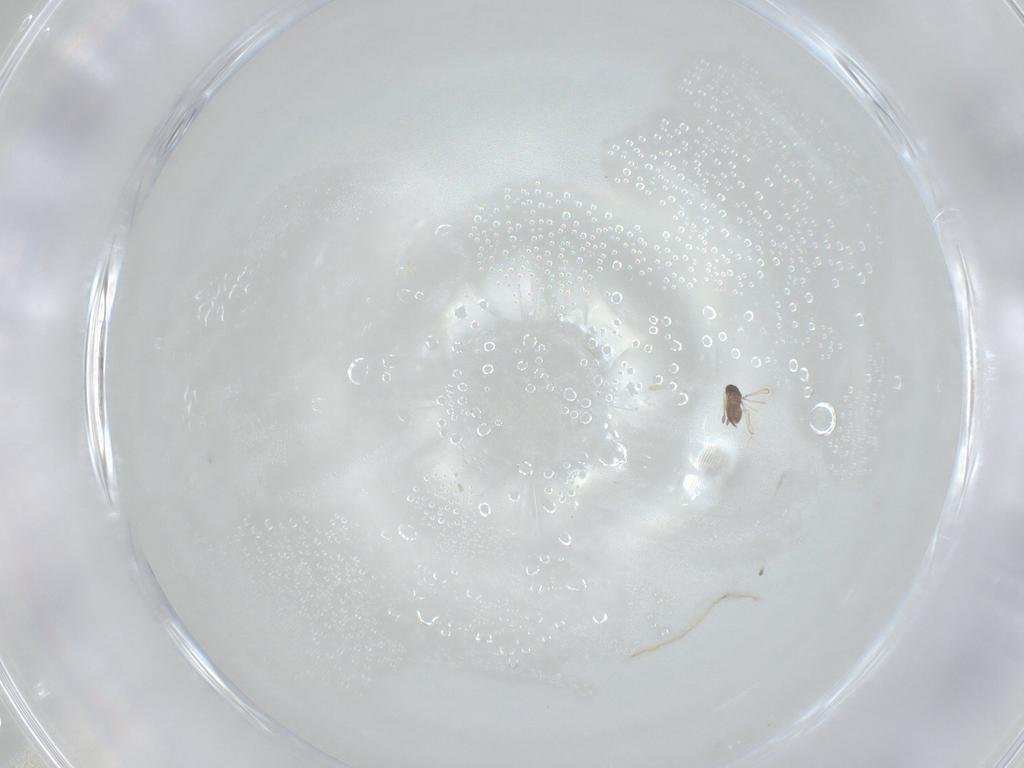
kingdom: Animalia
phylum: Arthropoda
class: Insecta
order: Hymenoptera
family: Mymaridae
